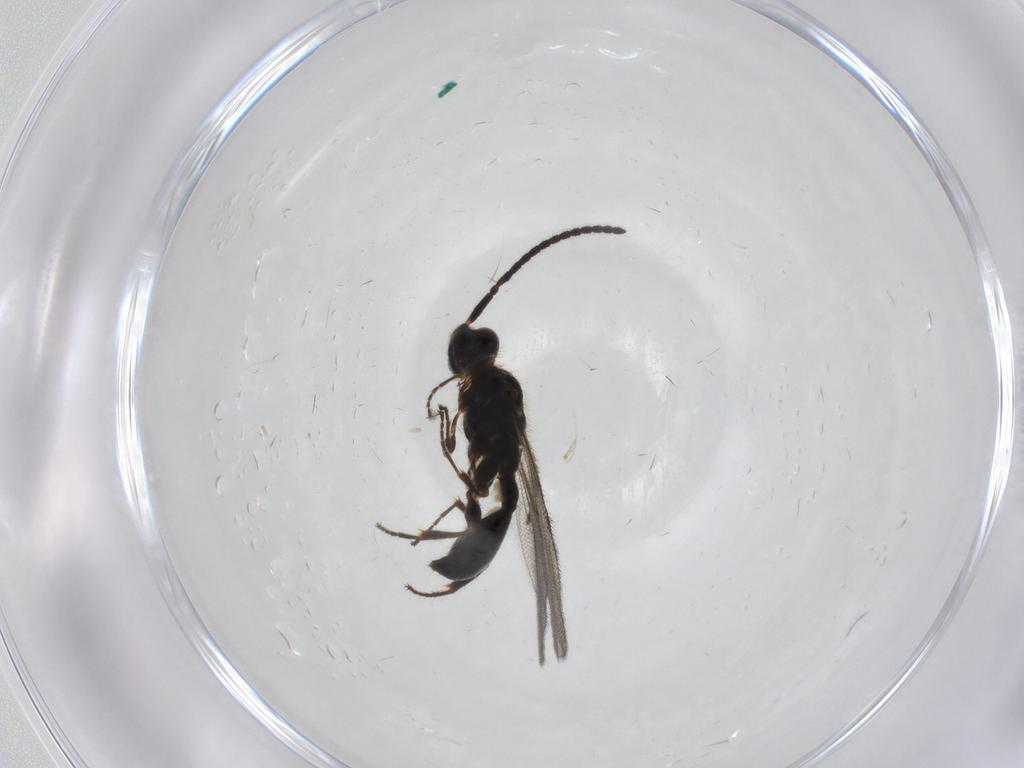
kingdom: Animalia
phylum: Arthropoda
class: Insecta
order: Hymenoptera
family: Diapriidae
